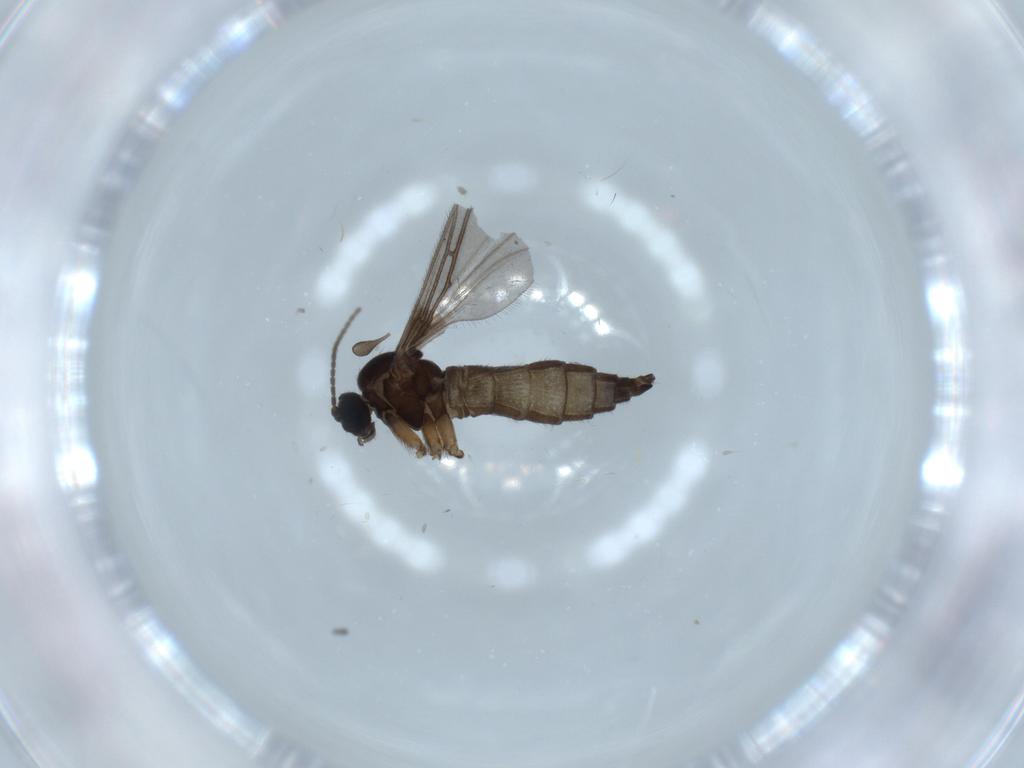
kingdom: Animalia
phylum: Arthropoda
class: Insecta
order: Diptera
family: Sciaridae
